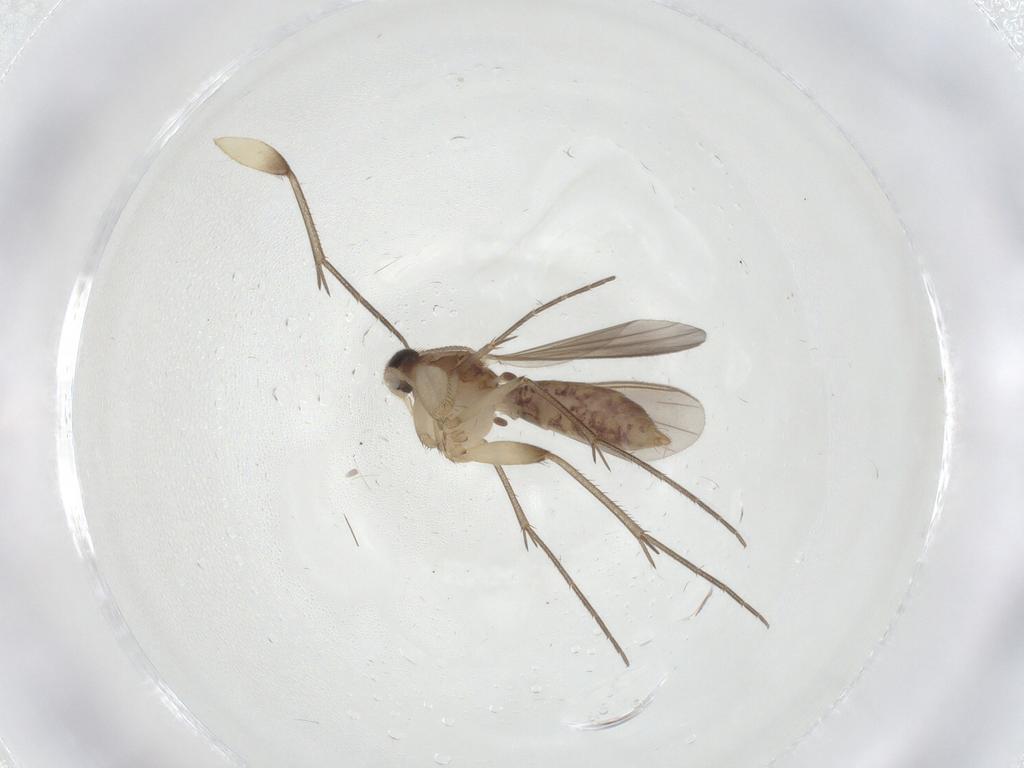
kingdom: Animalia
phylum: Arthropoda
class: Insecta
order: Diptera
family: Mycetophilidae
